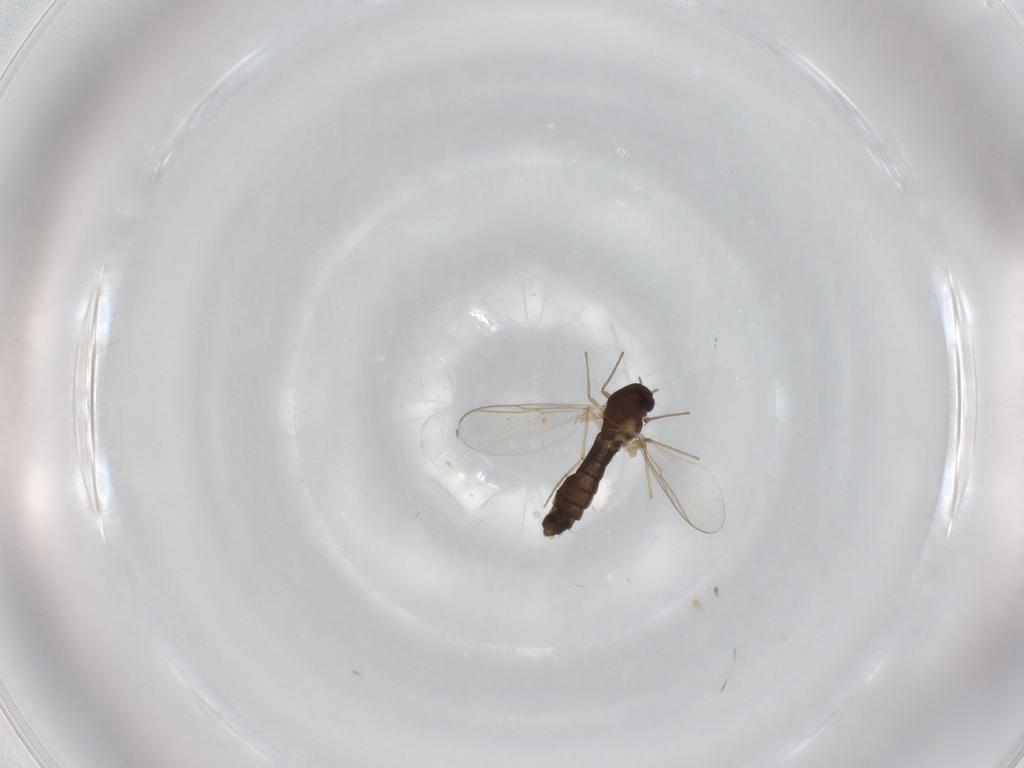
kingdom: Animalia
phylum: Arthropoda
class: Insecta
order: Diptera
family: Chironomidae
